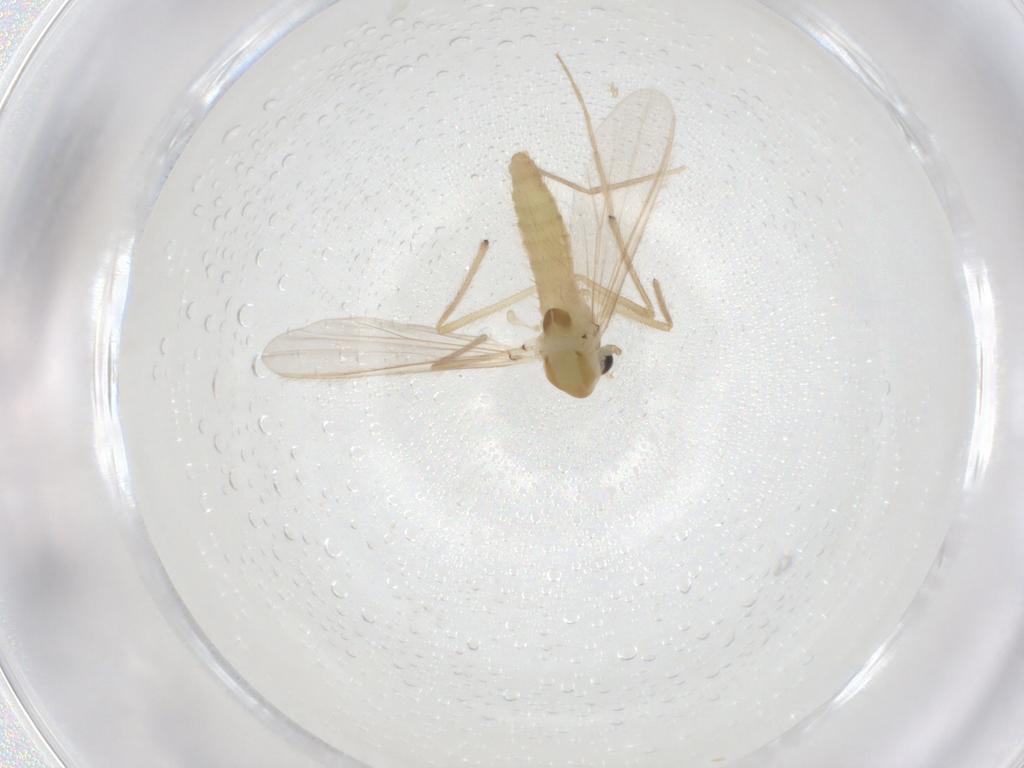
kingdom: Animalia
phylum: Arthropoda
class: Insecta
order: Diptera
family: Chironomidae
